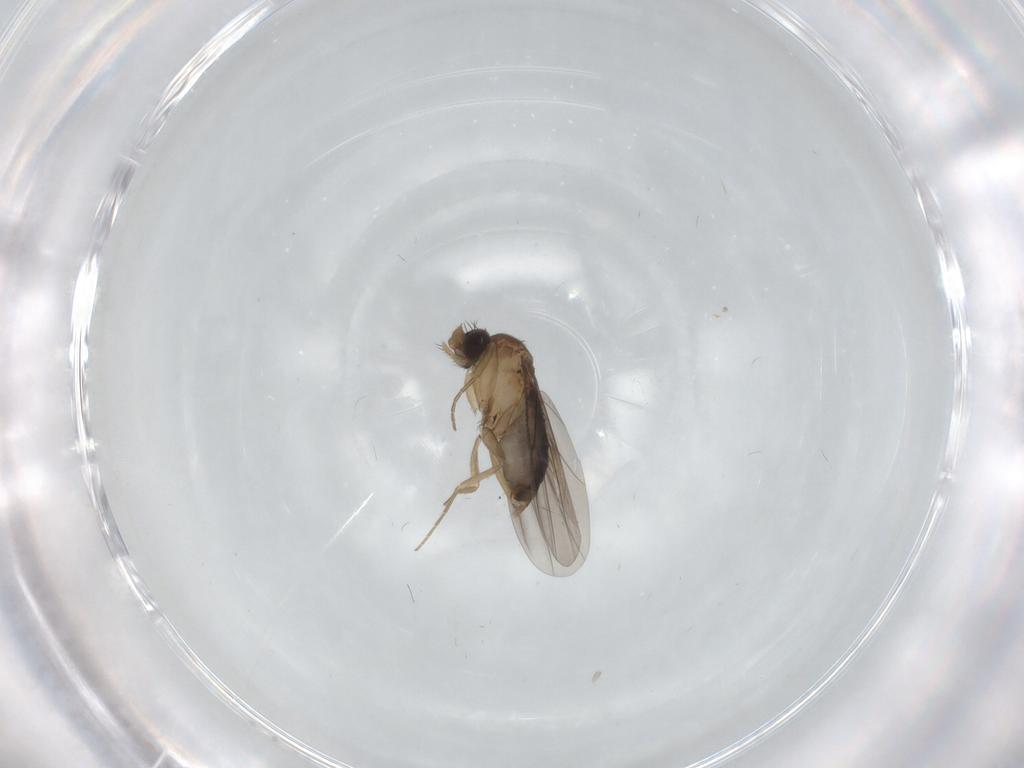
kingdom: Animalia
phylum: Arthropoda
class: Insecta
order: Diptera
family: Phoridae
